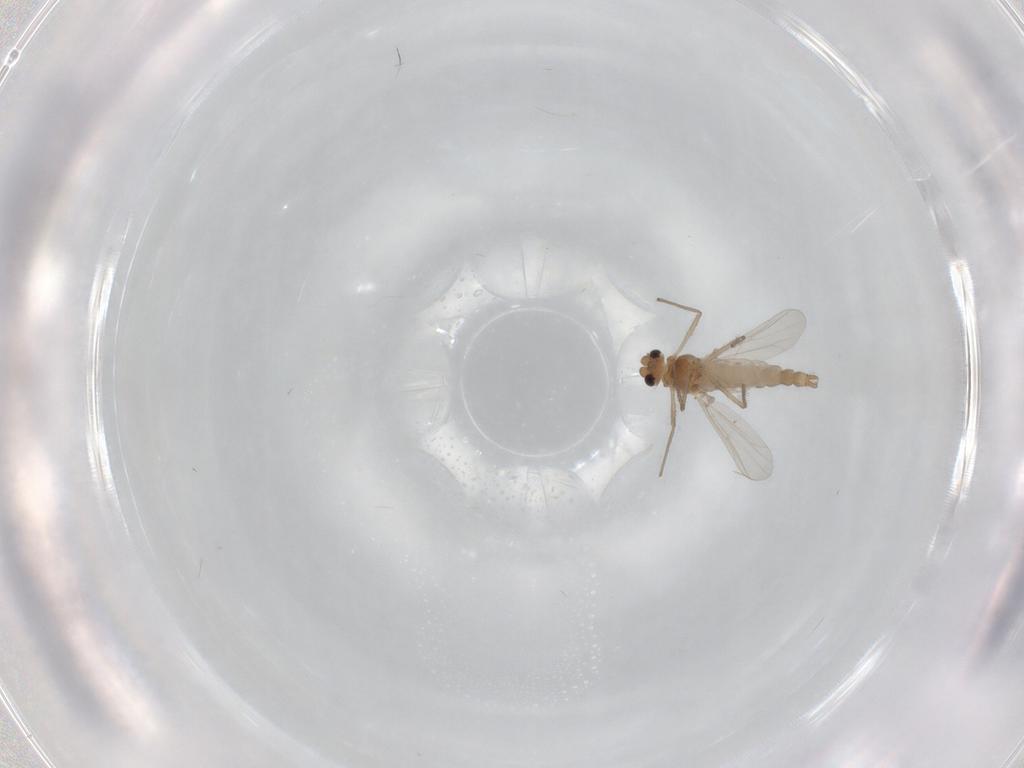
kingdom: Animalia
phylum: Arthropoda
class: Insecta
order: Diptera
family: Chironomidae
